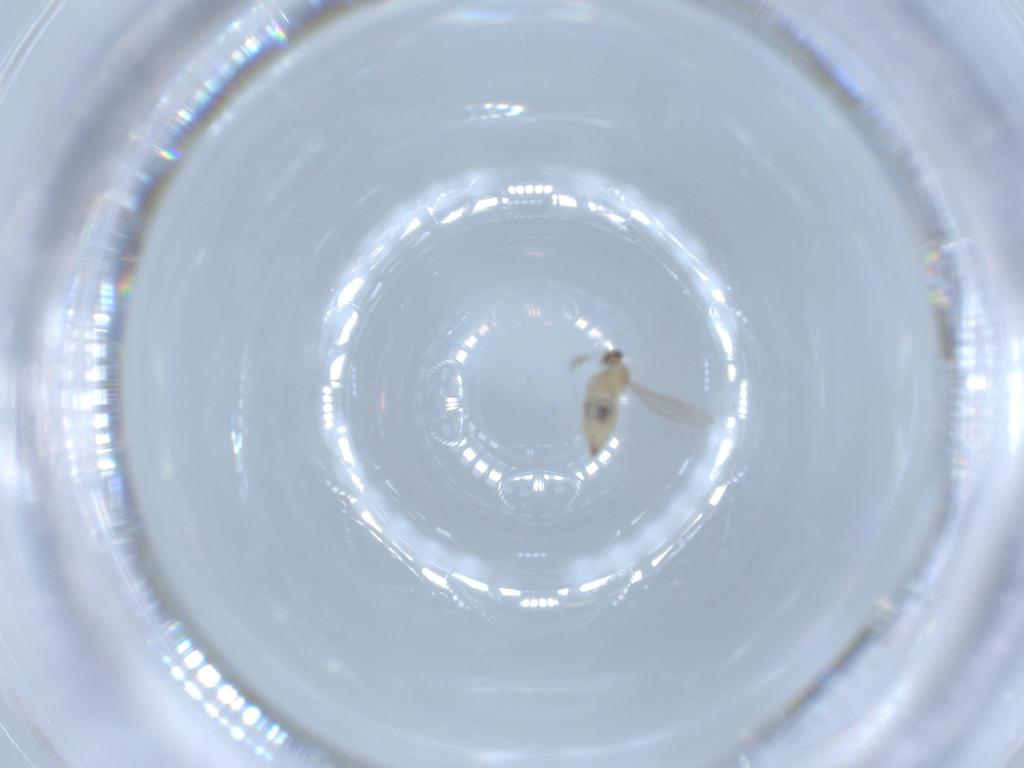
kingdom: Animalia
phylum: Arthropoda
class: Insecta
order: Diptera
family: Cecidomyiidae
